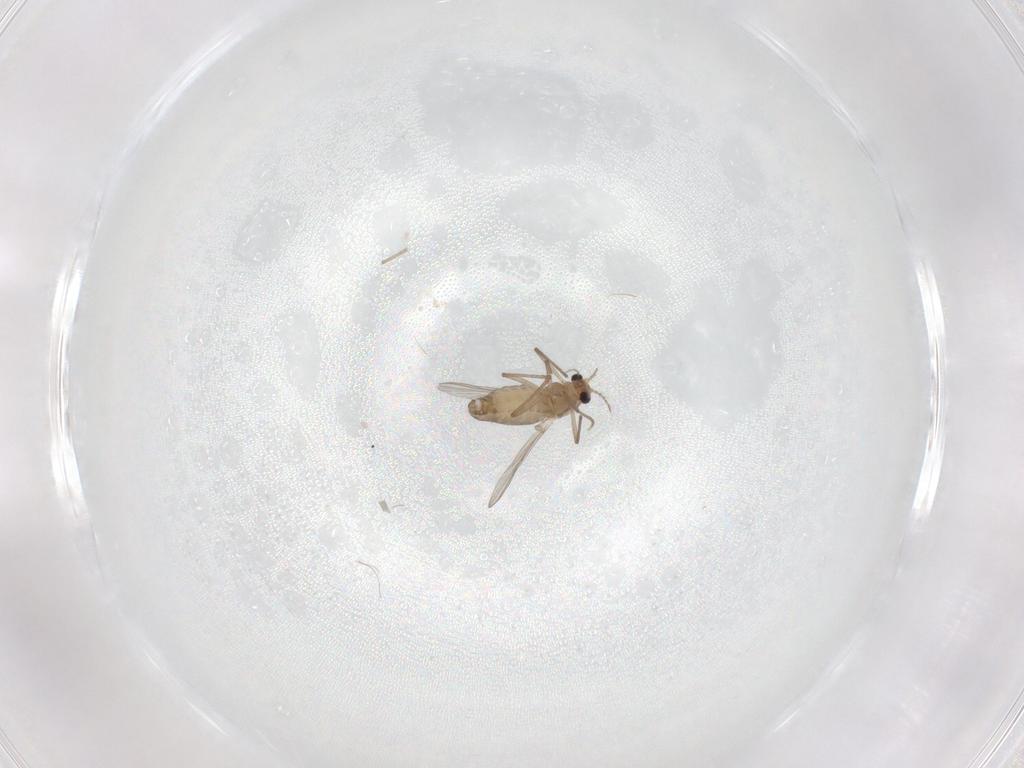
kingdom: Animalia
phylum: Arthropoda
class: Insecta
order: Diptera
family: Chironomidae
